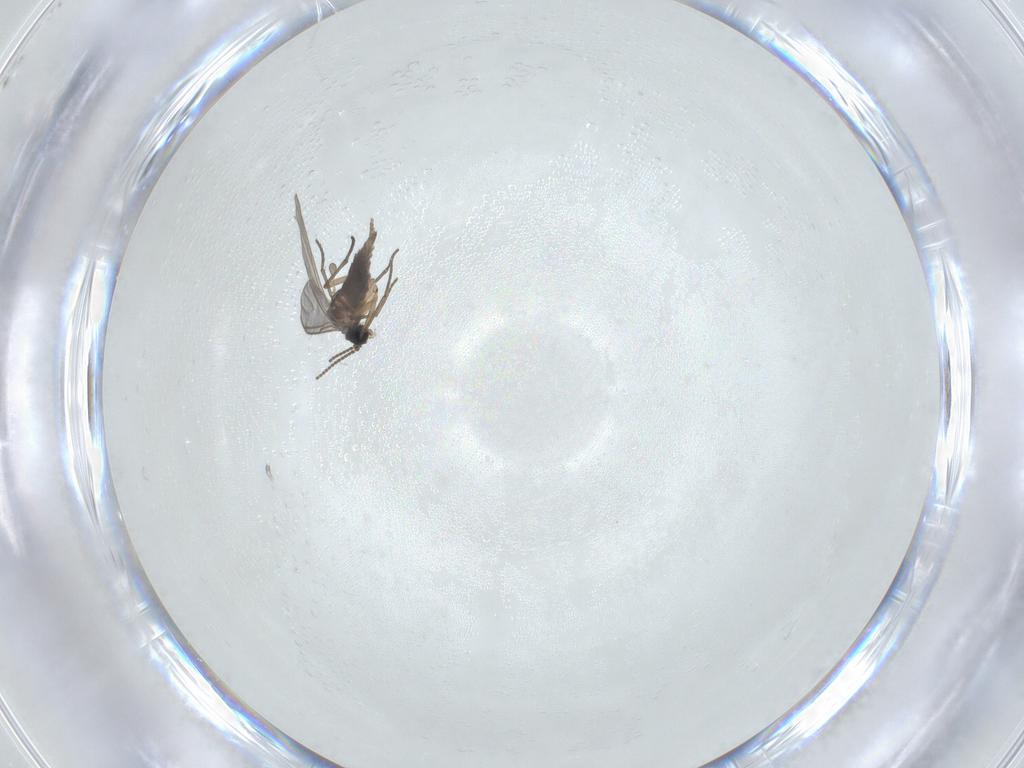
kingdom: Animalia
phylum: Arthropoda
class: Insecta
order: Diptera
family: Sciaridae
